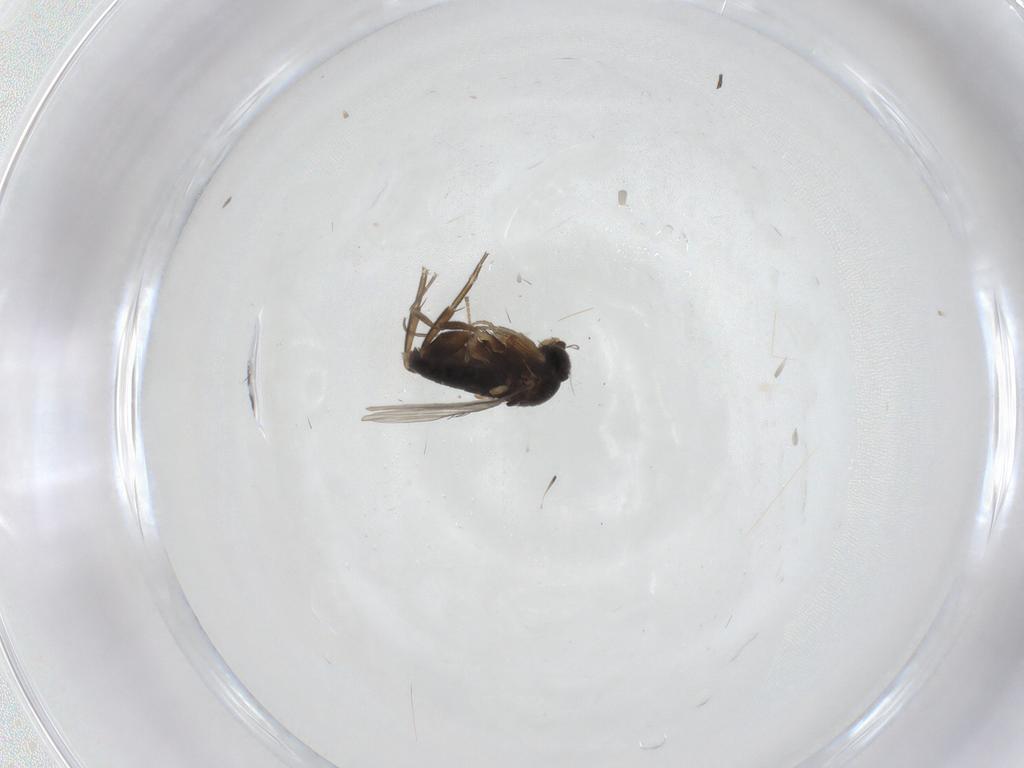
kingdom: Animalia
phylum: Arthropoda
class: Insecta
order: Diptera
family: Phoridae
